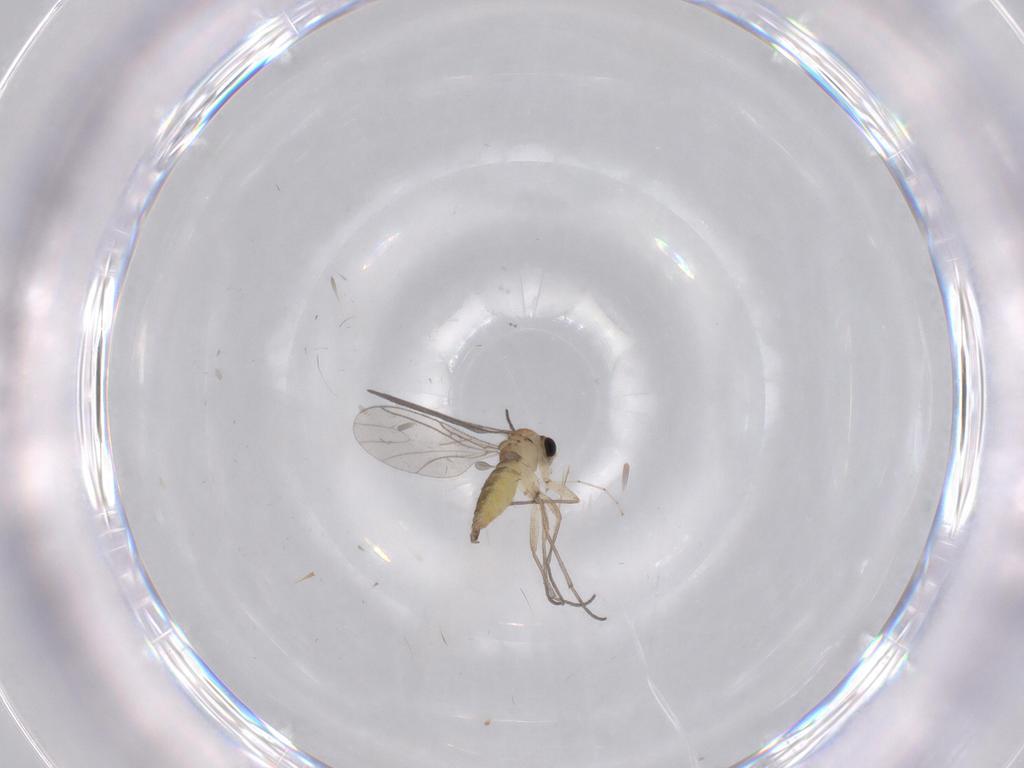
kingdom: Animalia
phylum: Arthropoda
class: Insecta
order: Diptera
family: Sciaridae
